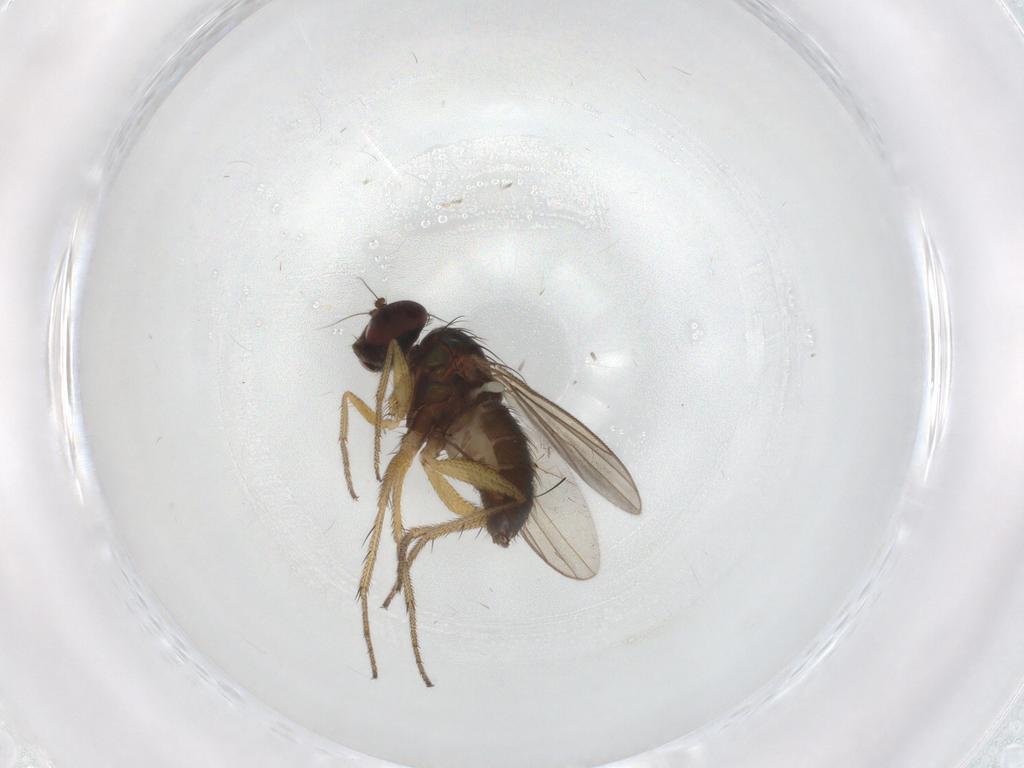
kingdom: Animalia
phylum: Arthropoda
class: Insecta
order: Diptera
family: Chironomidae
